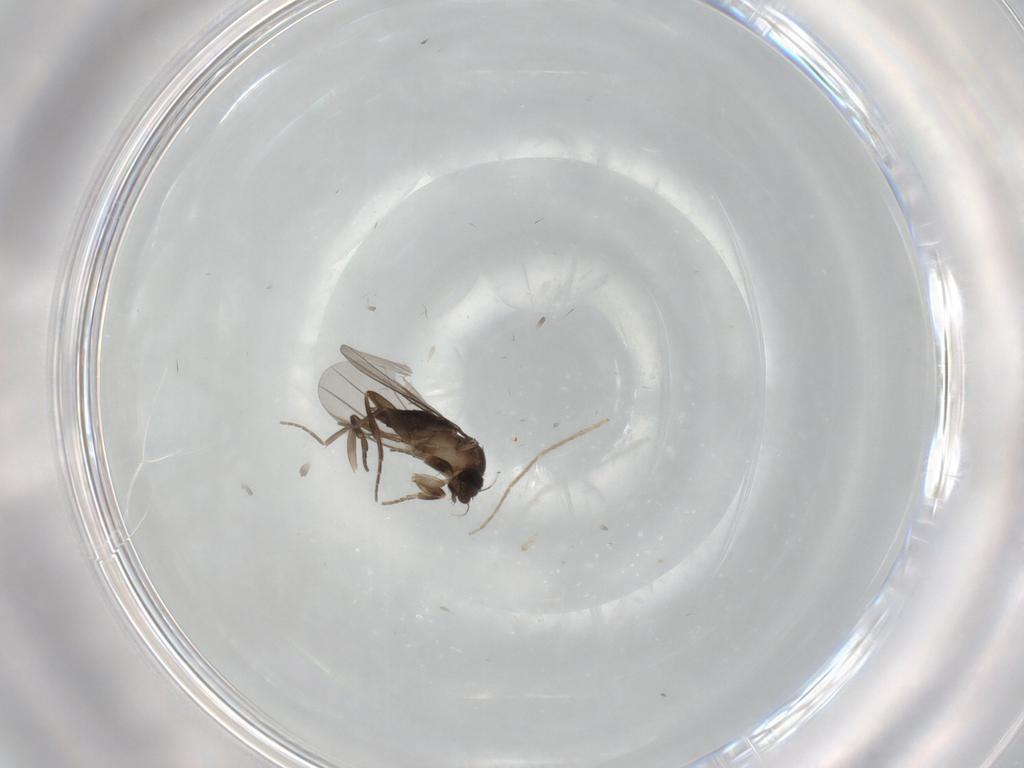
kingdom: Animalia
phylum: Arthropoda
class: Insecta
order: Diptera
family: Phoridae
